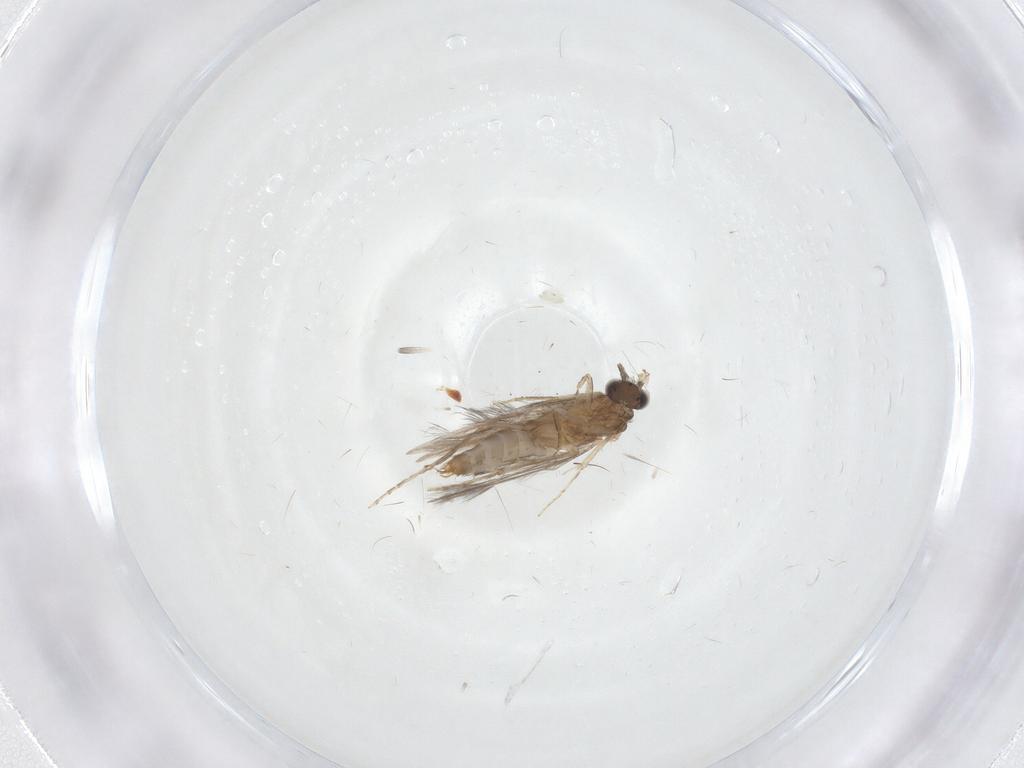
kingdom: Animalia
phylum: Arthropoda
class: Insecta
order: Trichoptera
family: Hydroptilidae
